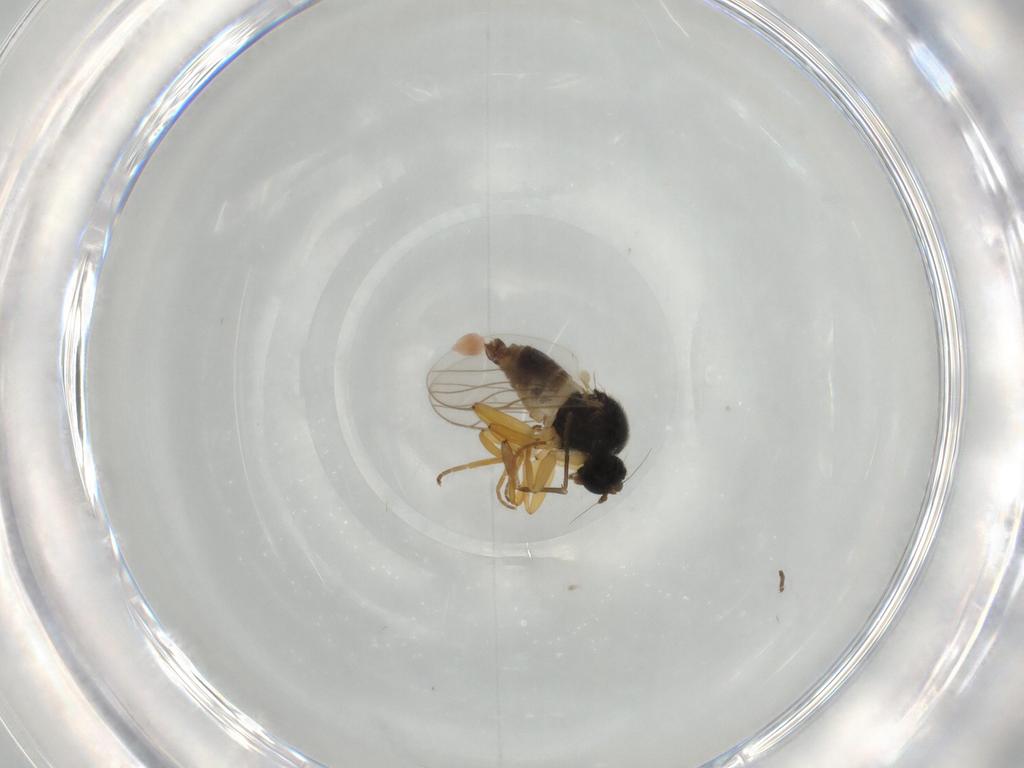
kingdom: Animalia
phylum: Arthropoda
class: Insecta
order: Diptera
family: Hybotidae
